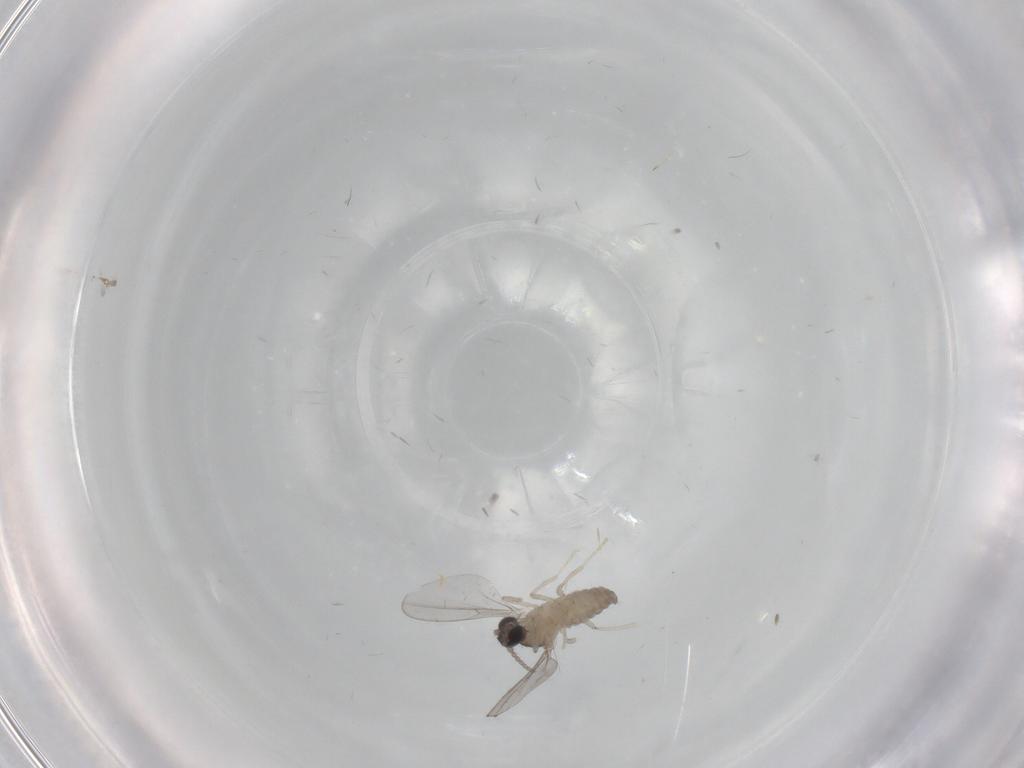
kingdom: Animalia
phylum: Arthropoda
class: Insecta
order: Diptera
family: Cecidomyiidae
